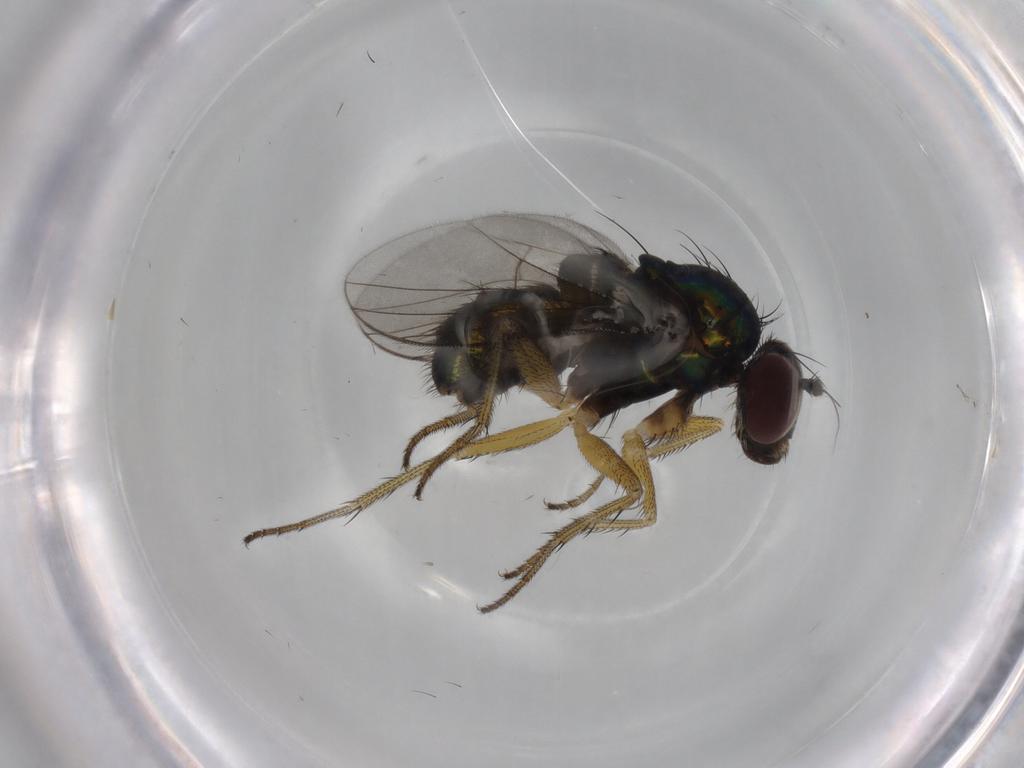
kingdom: Animalia
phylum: Arthropoda
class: Insecta
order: Diptera
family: Dolichopodidae
